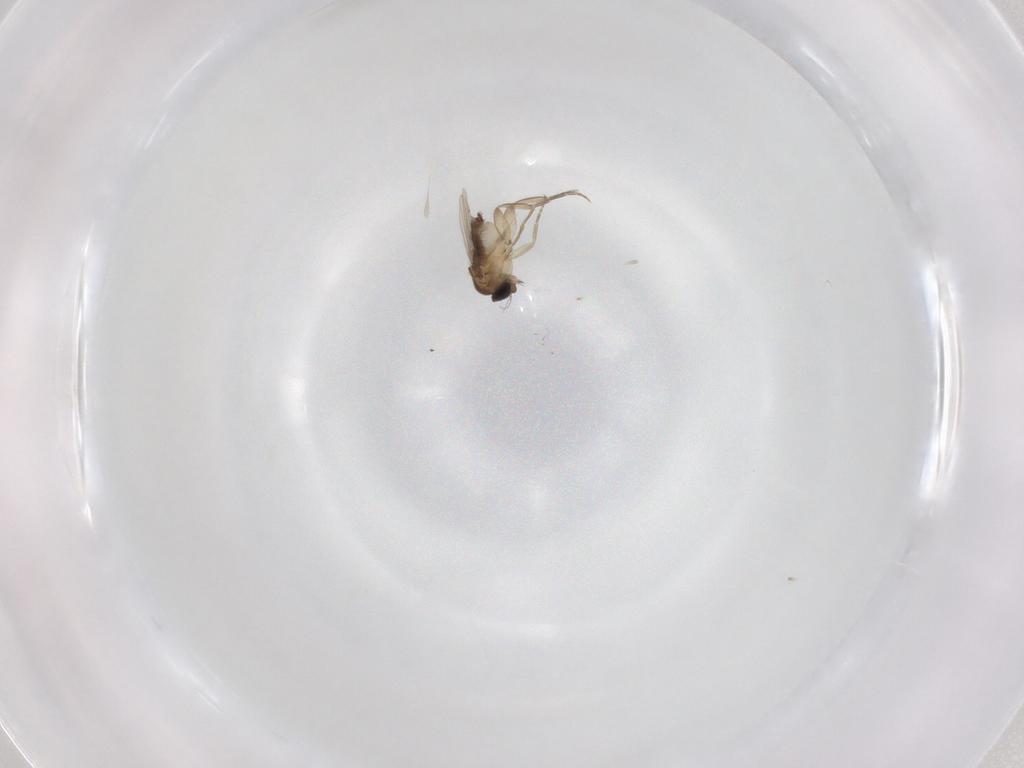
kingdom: Animalia
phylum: Arthropoda
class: Insecta
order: Diptera
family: Phoridae
